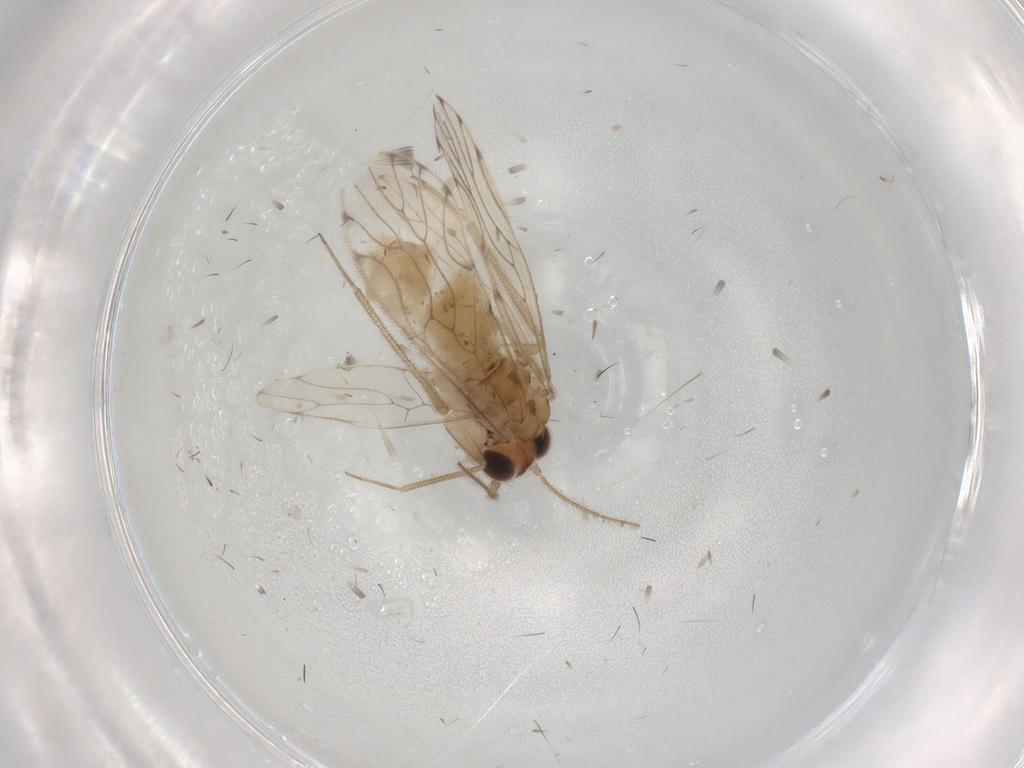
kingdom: Animalia
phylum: Arthropoda
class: Insecta
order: Psocodea
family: Epipsocidae
